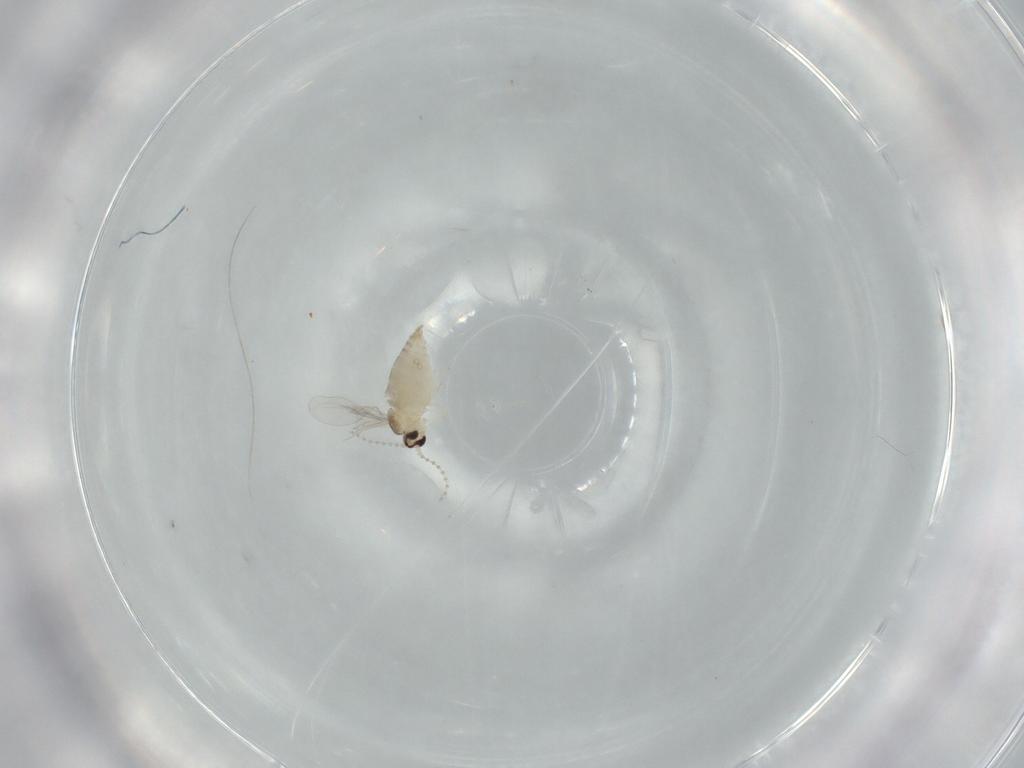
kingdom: Animalia
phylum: Arthropoda
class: Insecta
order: Diptera
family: Cecidomyiidae
